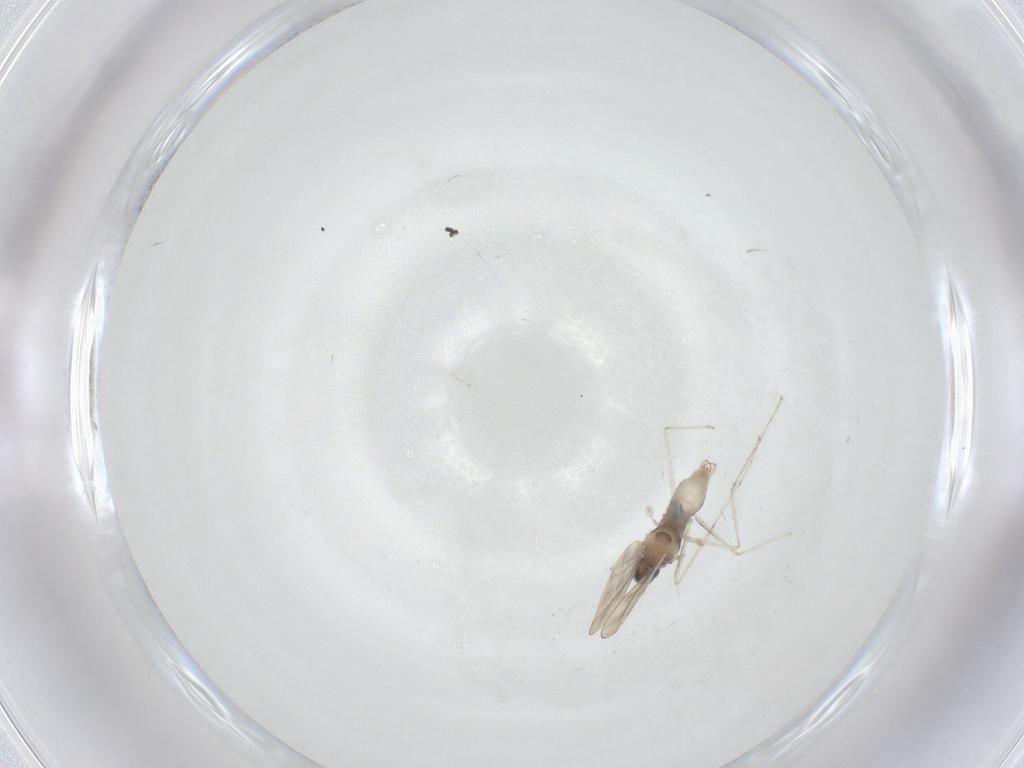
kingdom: Animalia
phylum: Arthropoda
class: Insecta
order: Diptera
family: Cecidomyiidae
